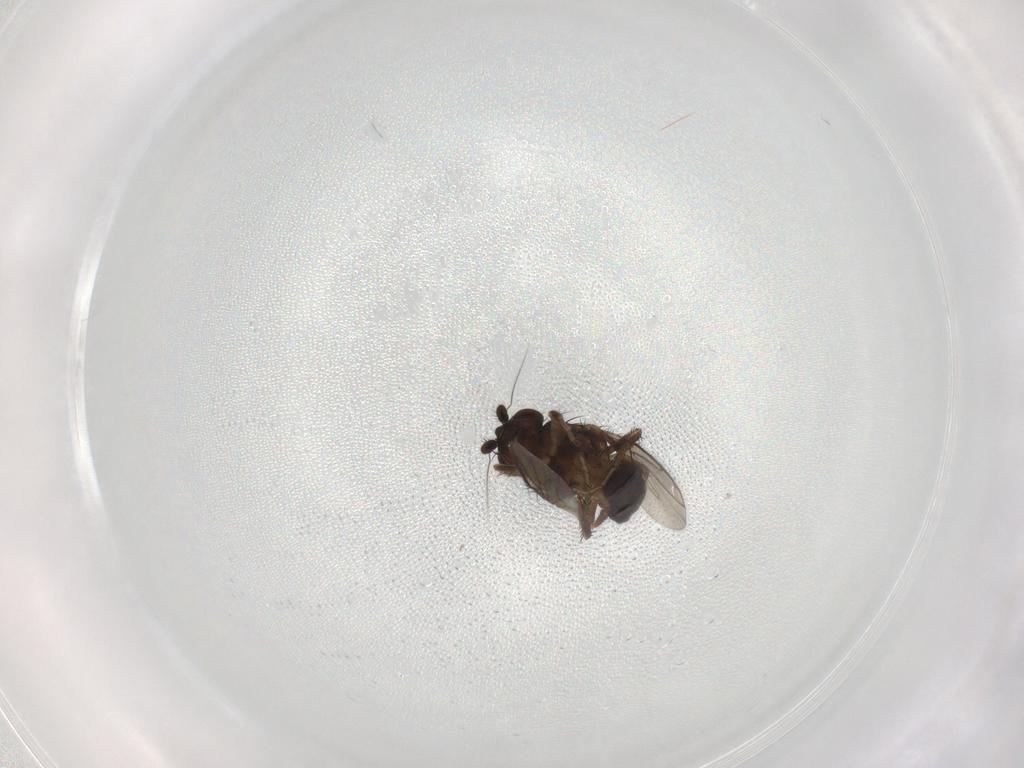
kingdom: Animalia
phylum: Arthropoda
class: Insecta
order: Diptera
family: Sphaeroceridae
